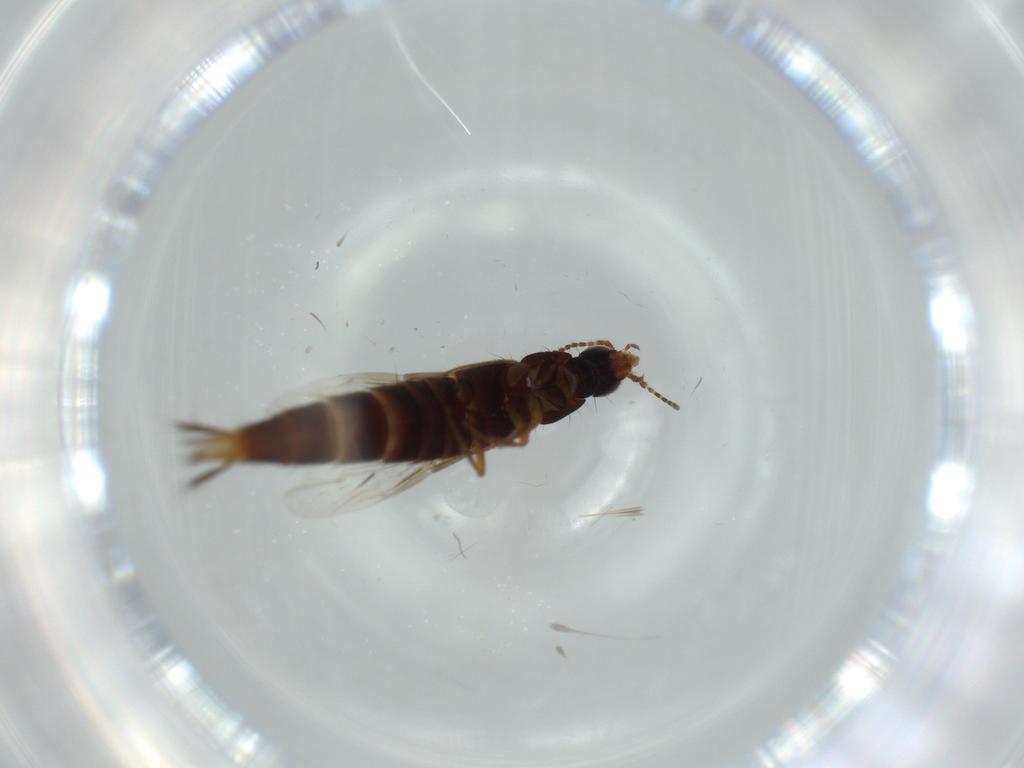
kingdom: Animalia
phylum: Arthropoda
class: Insecta
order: Coleoptera
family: Staphylinidae
